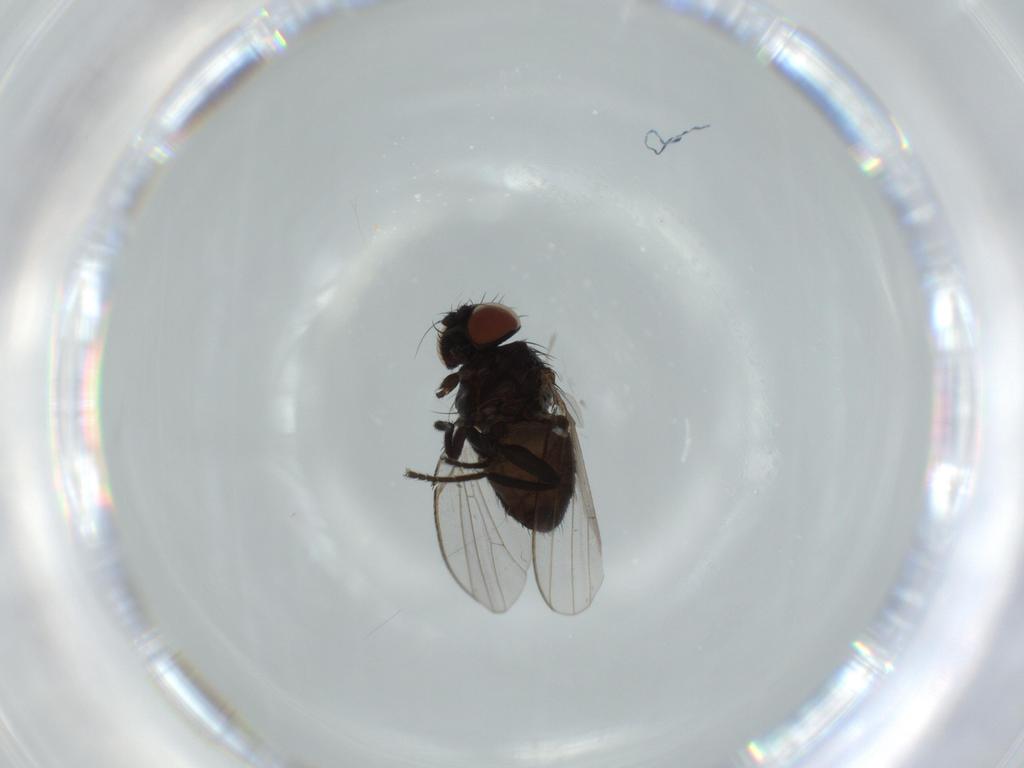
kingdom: Animalia
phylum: Arthropoda
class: Insecta
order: Diptera
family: Milichiidae
